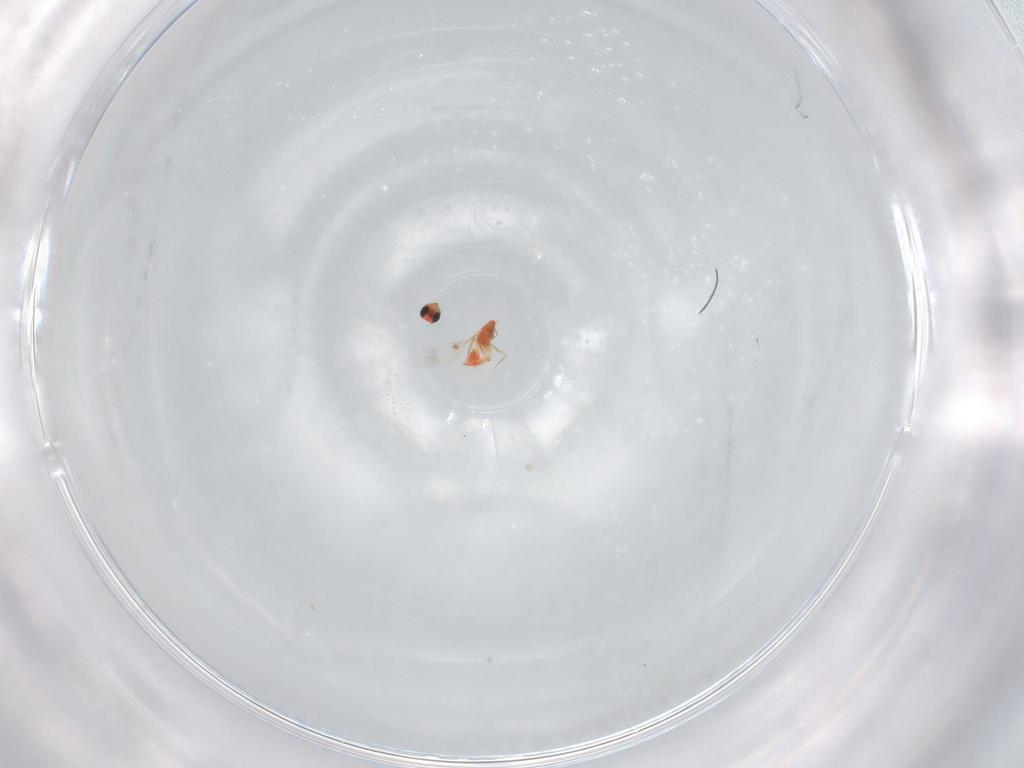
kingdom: Animalia
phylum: Arthropoda
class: Insecta
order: Hymenoptera
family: Trichogrammatidae
